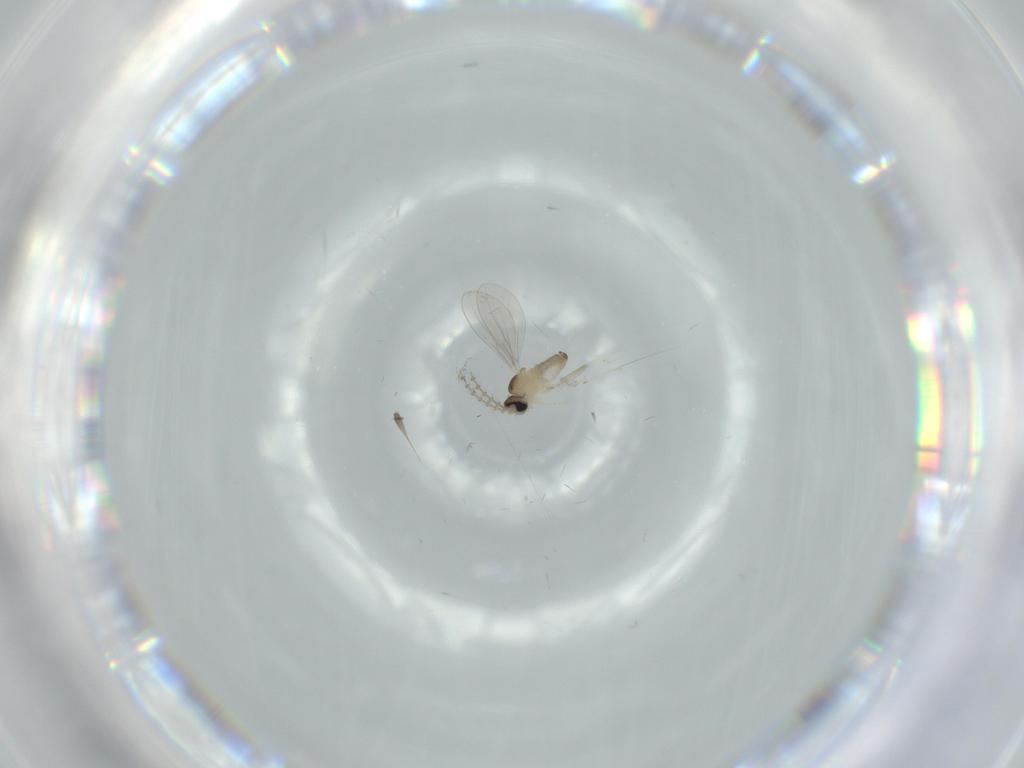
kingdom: Animalia
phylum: Arthropoda
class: Insecta
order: Diptera
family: Cecidomyiidae
